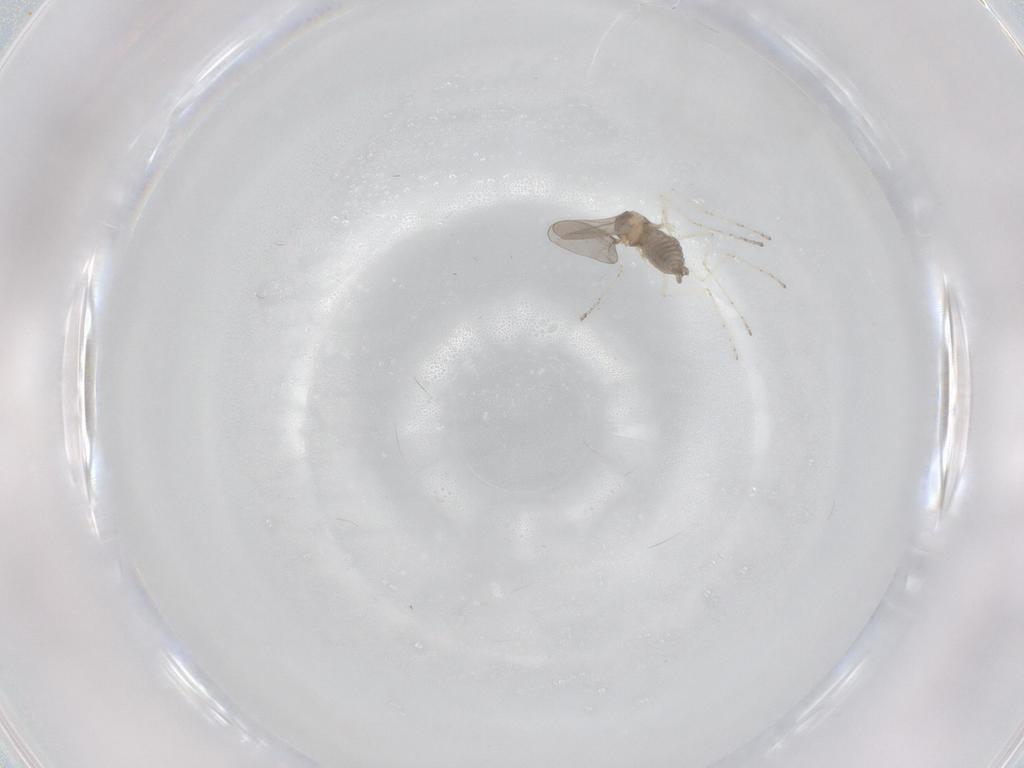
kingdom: Animalia
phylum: Arthropoda
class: Insecta
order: Diptera
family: Cecidomyiidae
